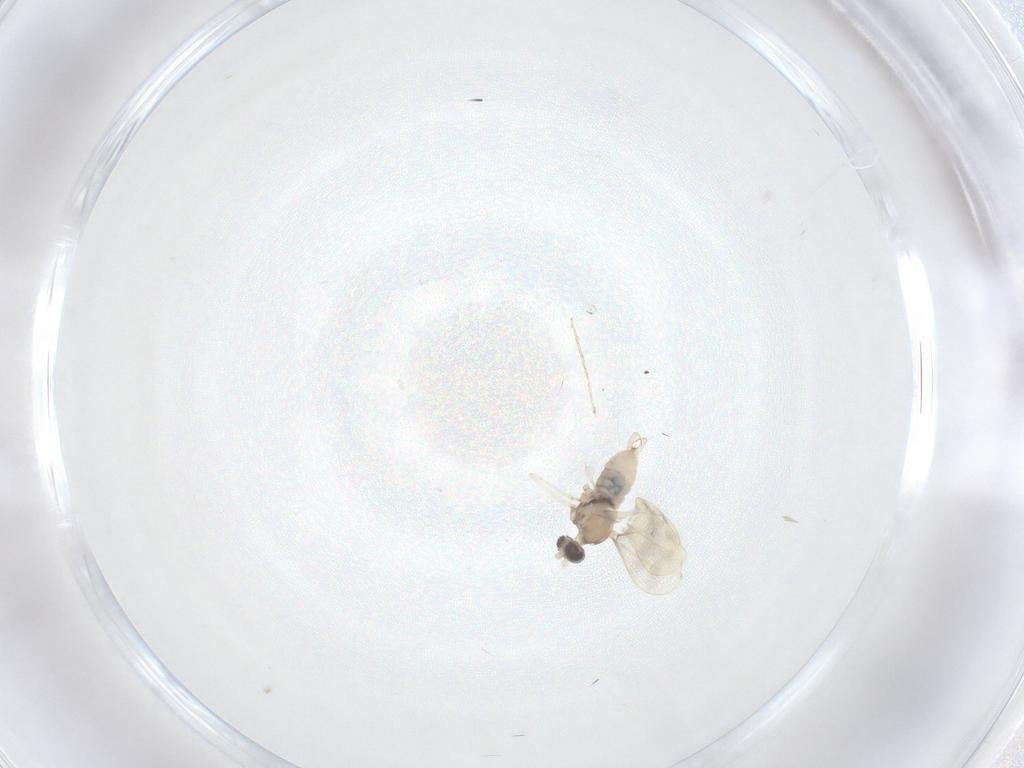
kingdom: Animalia
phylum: Arthropoda
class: Insecta
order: Diptera
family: Cecidomyiidae
